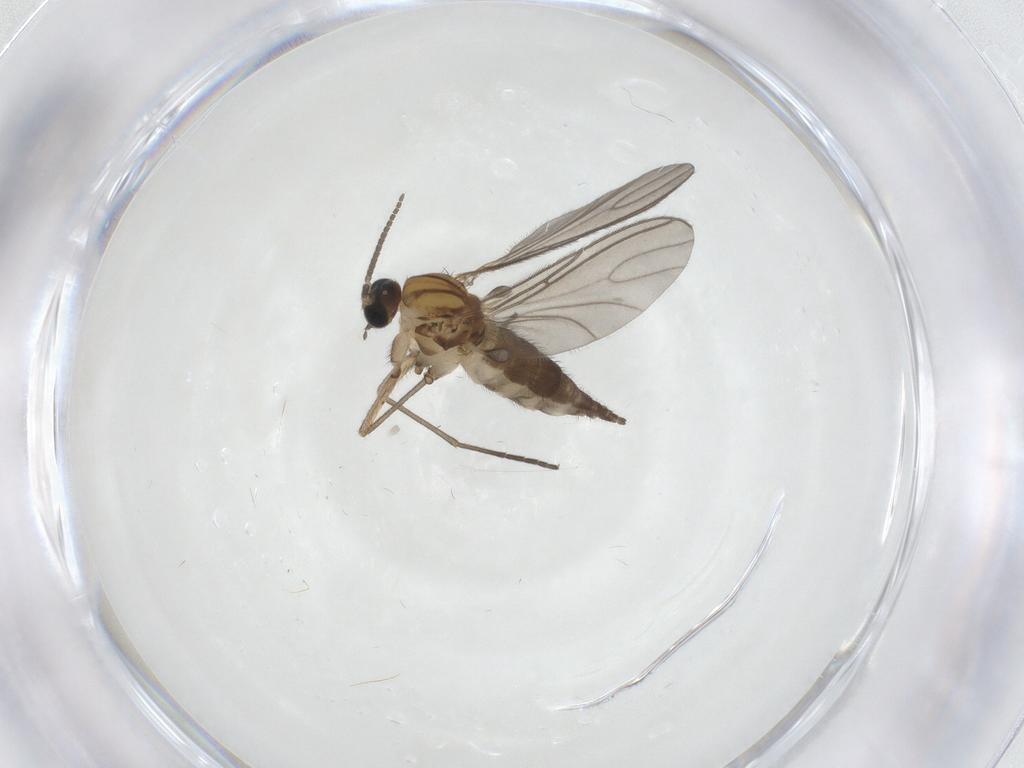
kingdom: Animalia
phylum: Arthropoda
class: Insecta
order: Diptera
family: Sciaridae
